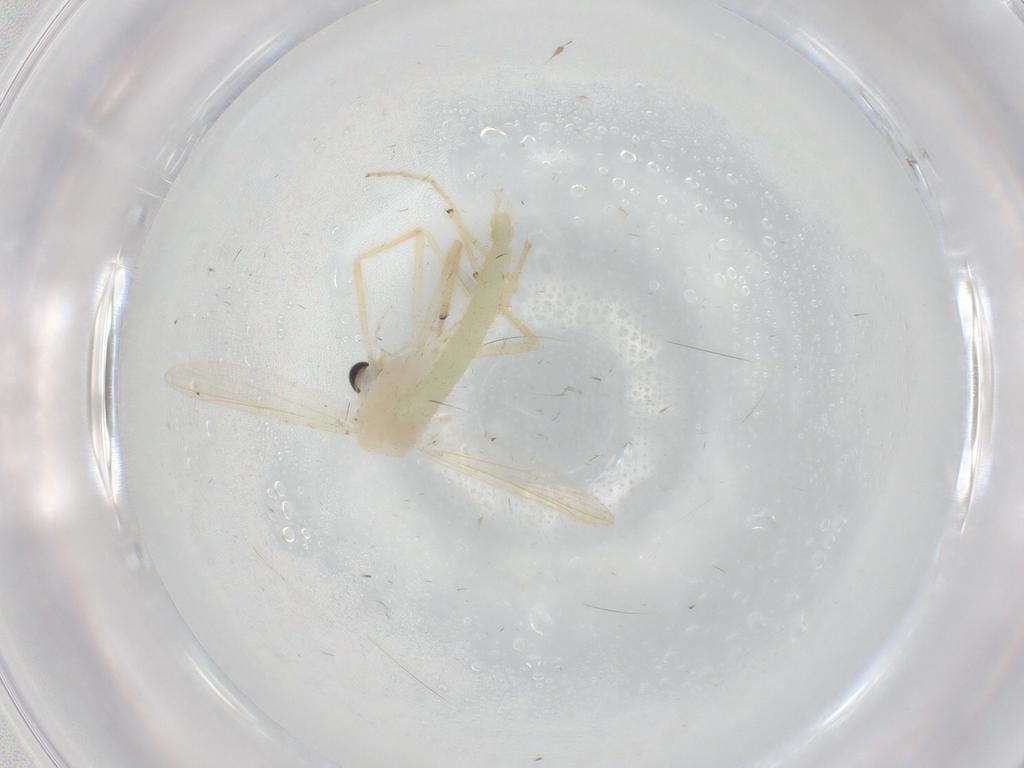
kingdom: Animalia
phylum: Arthropoda
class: Insecta
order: Diptera
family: Chironomidae
